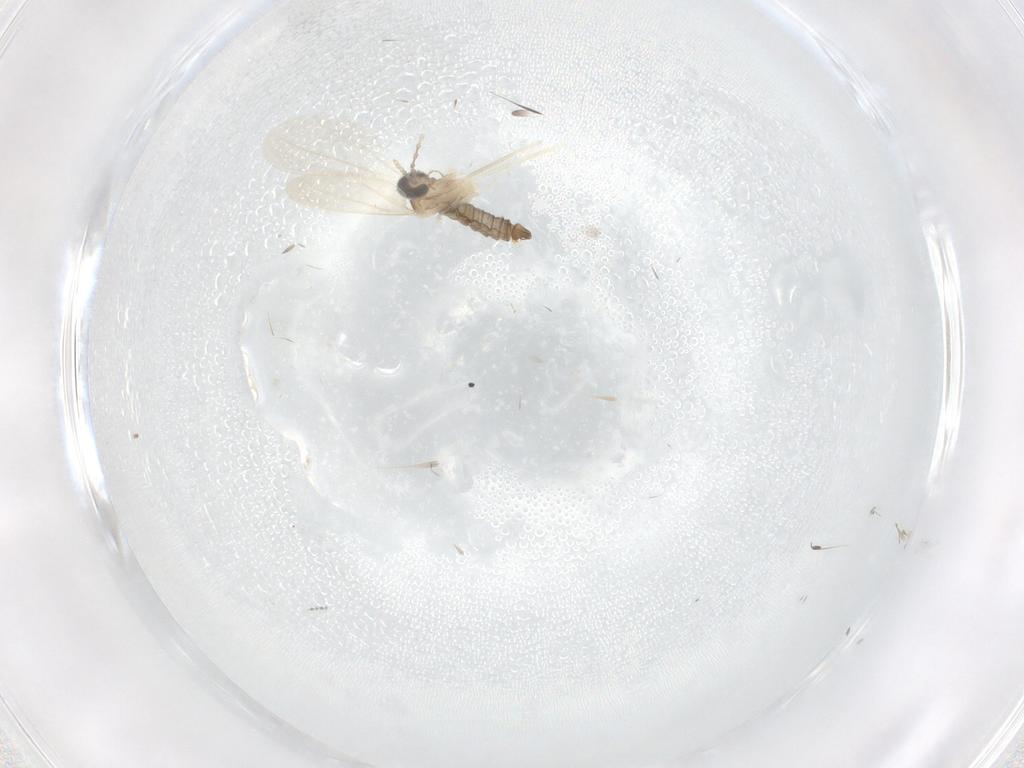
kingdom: Animalia
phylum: Arthropoda
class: Insecta
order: Diptera
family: Cecidomyiidae
